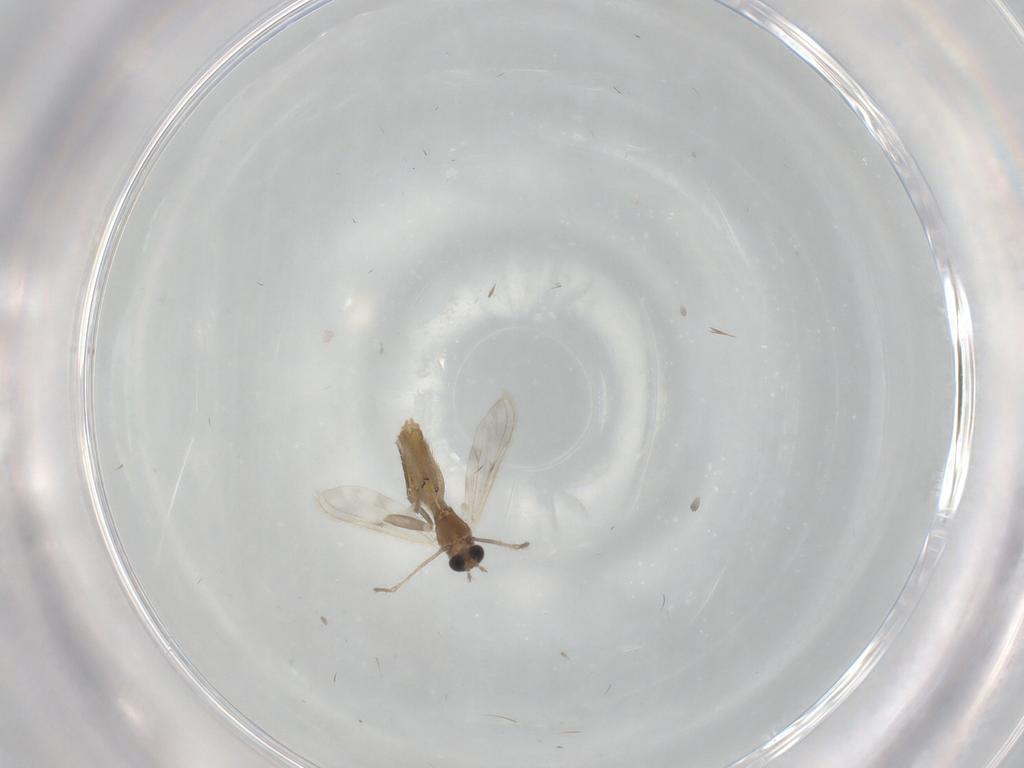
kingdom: Animalia
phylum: Arthropoda
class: Insecta
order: Diptera
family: Chironomidae
